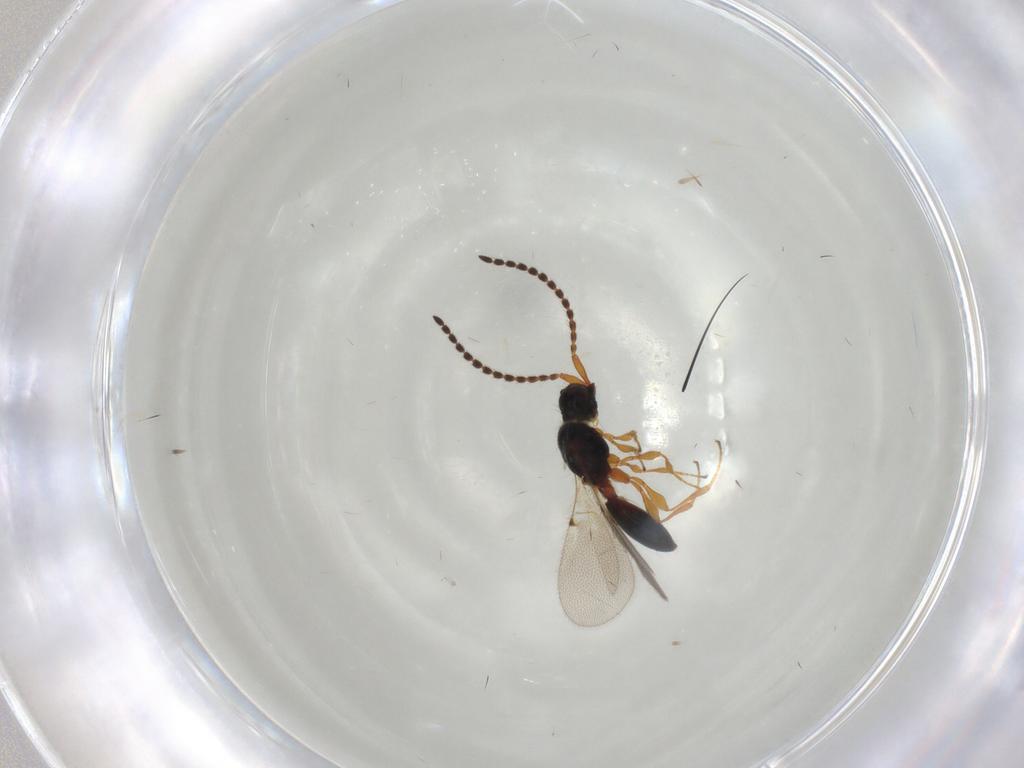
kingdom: Animalia
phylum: Arthropoda
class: Insecta
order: Hymenoptera
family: Diapriidae
